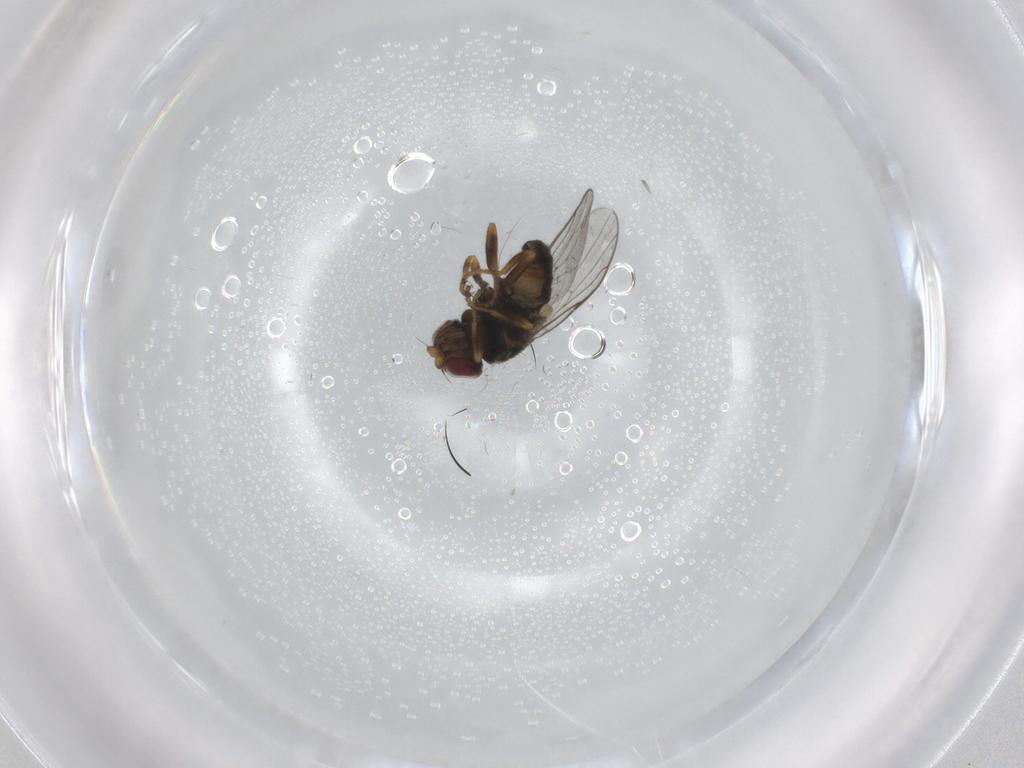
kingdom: Animalia
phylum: Arthropoda
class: Insecta
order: Diptera
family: Chloropidae
